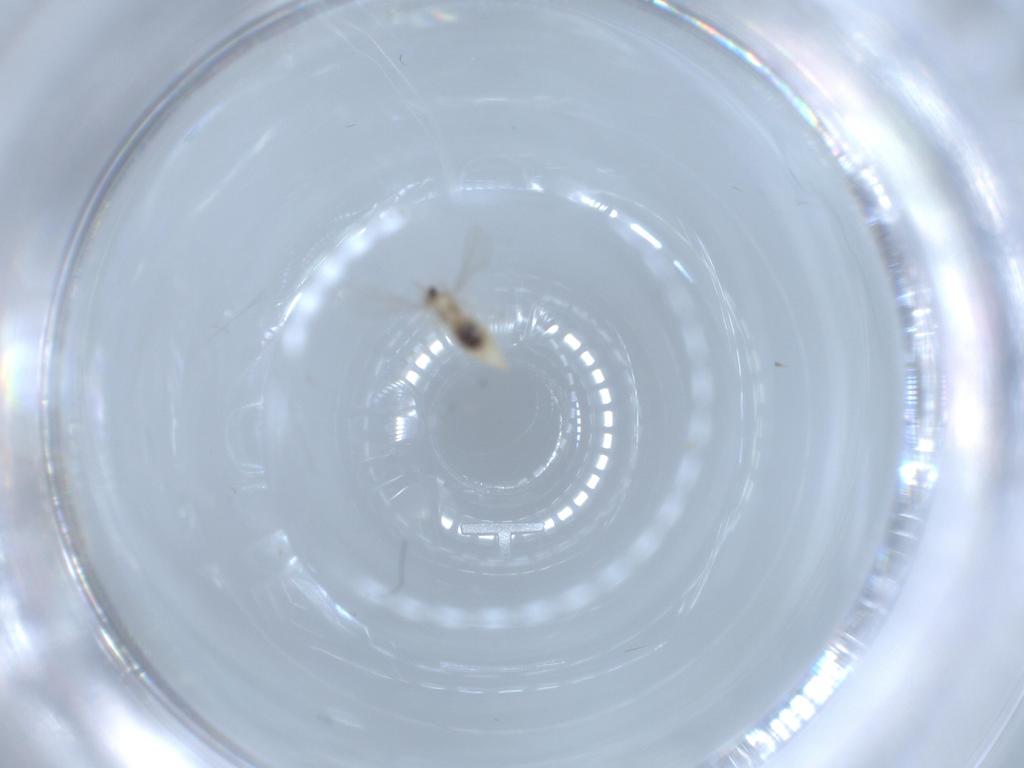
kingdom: Animalia
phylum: Arthropoda
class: Insecta
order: Diptera
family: Cecidomyiidae
